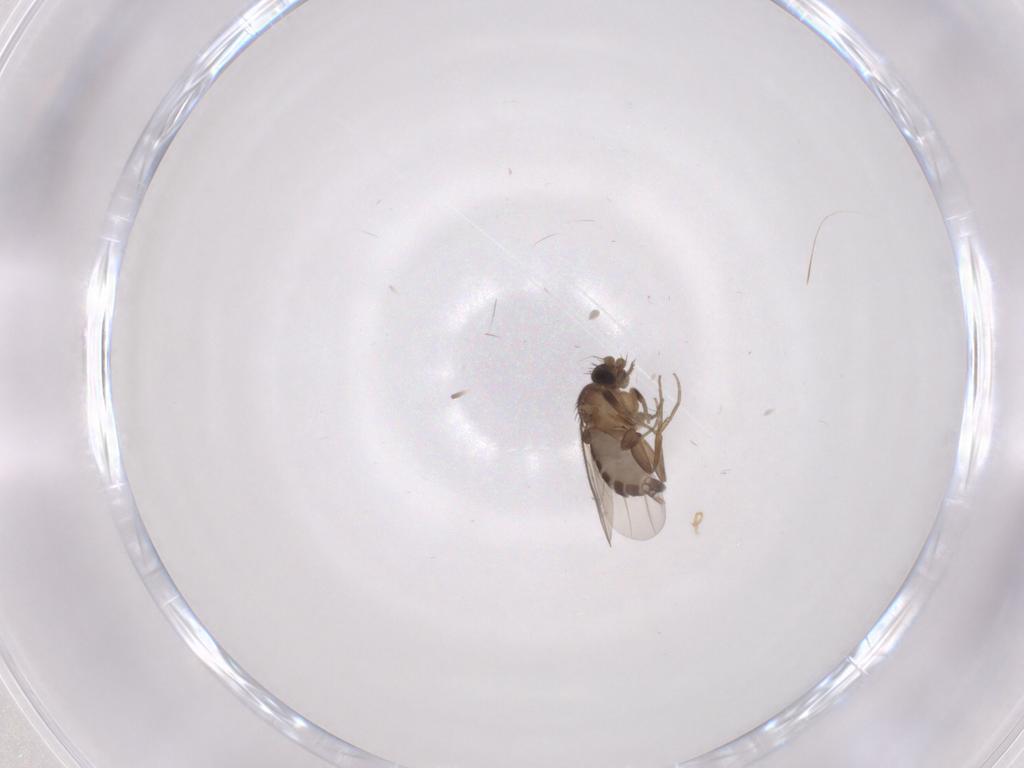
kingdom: Animalia
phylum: Arthropoda
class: Insecta
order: Diptera
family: Phoridae
